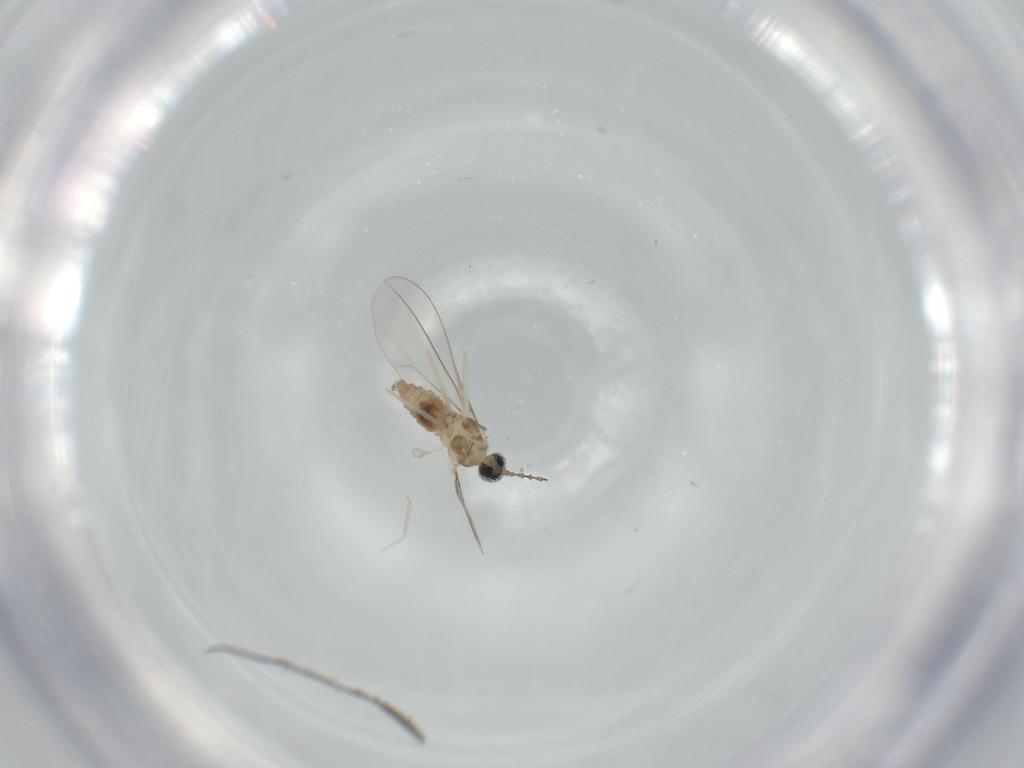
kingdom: Animalia
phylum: Arthropoda
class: Insecta
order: Diptera
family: Cecidomyiidae
